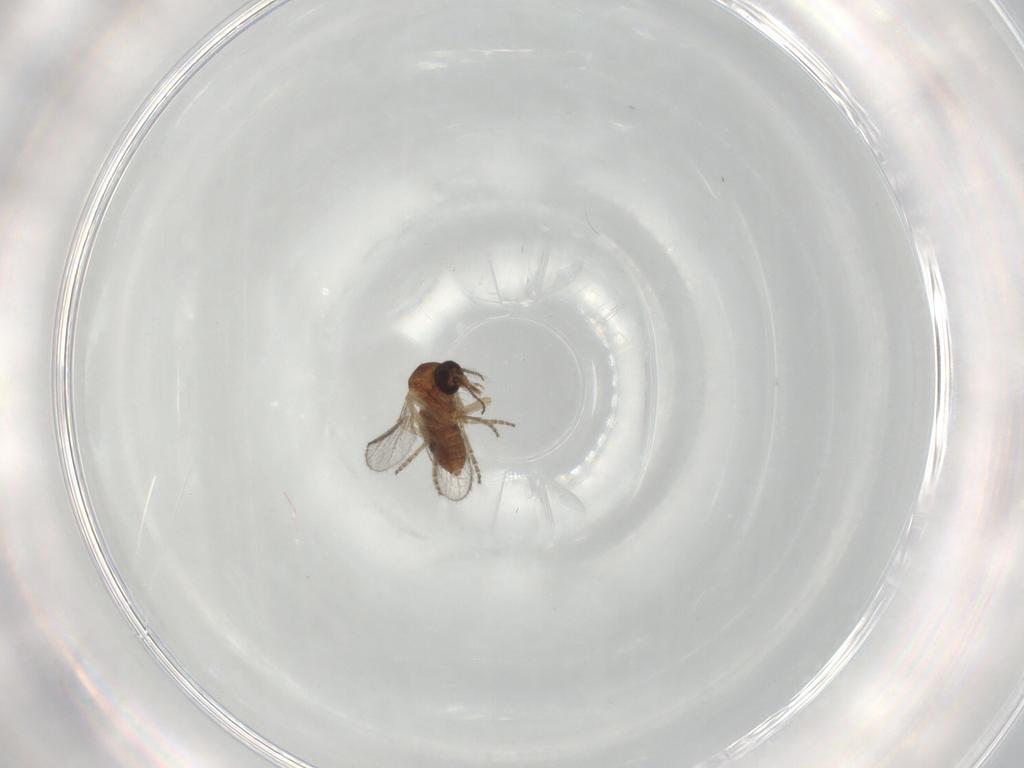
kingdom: Animalia
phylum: Arthropoda
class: Insecta
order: Diptera
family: Ceratopogonidae
